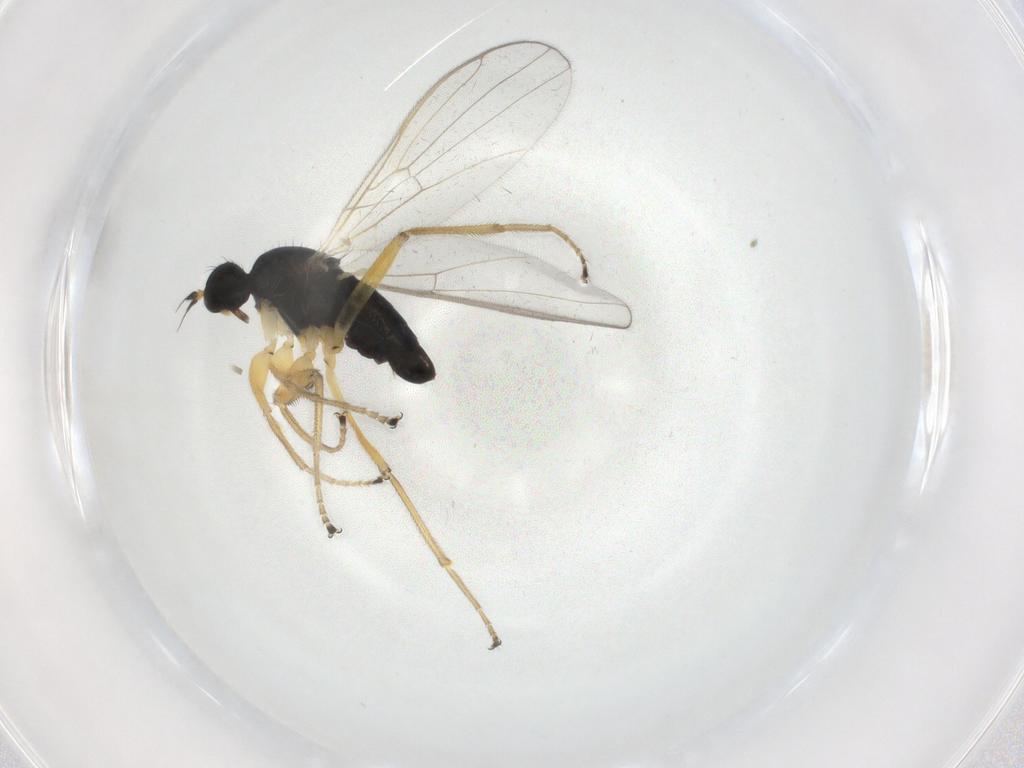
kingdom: Animalia
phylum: Arthropoda
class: Insecta
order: Diptera
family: Hybotidae
